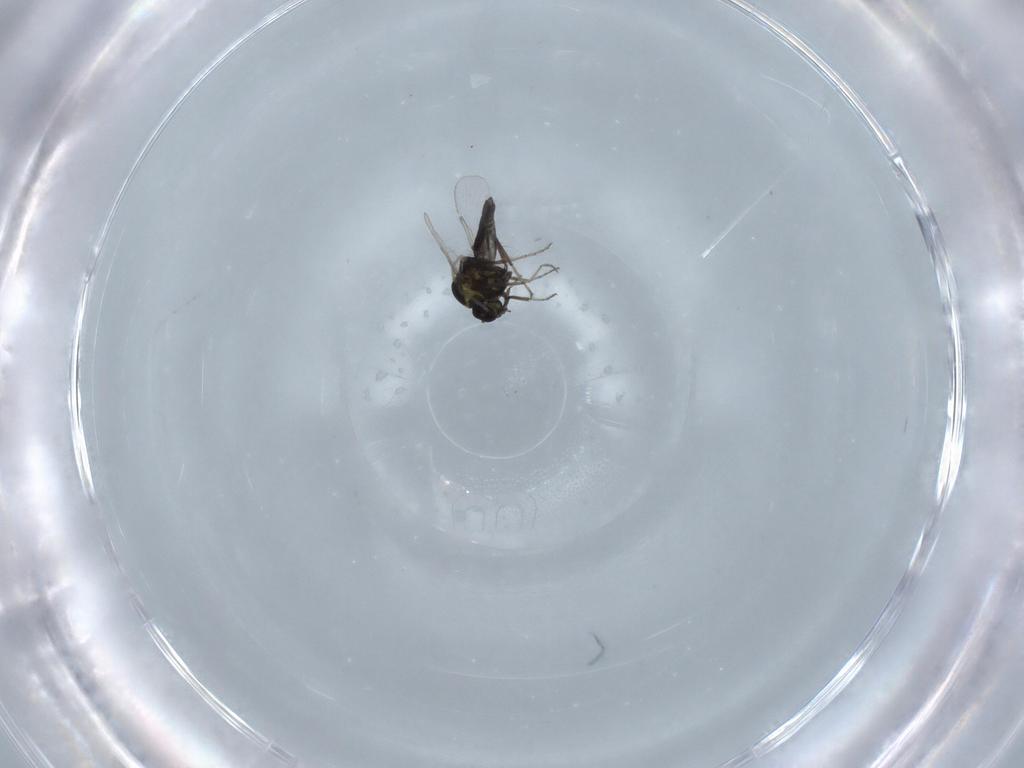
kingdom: Animalia
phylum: Arthropoda
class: Insecta
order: Diptera
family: Ceratopogonidae
